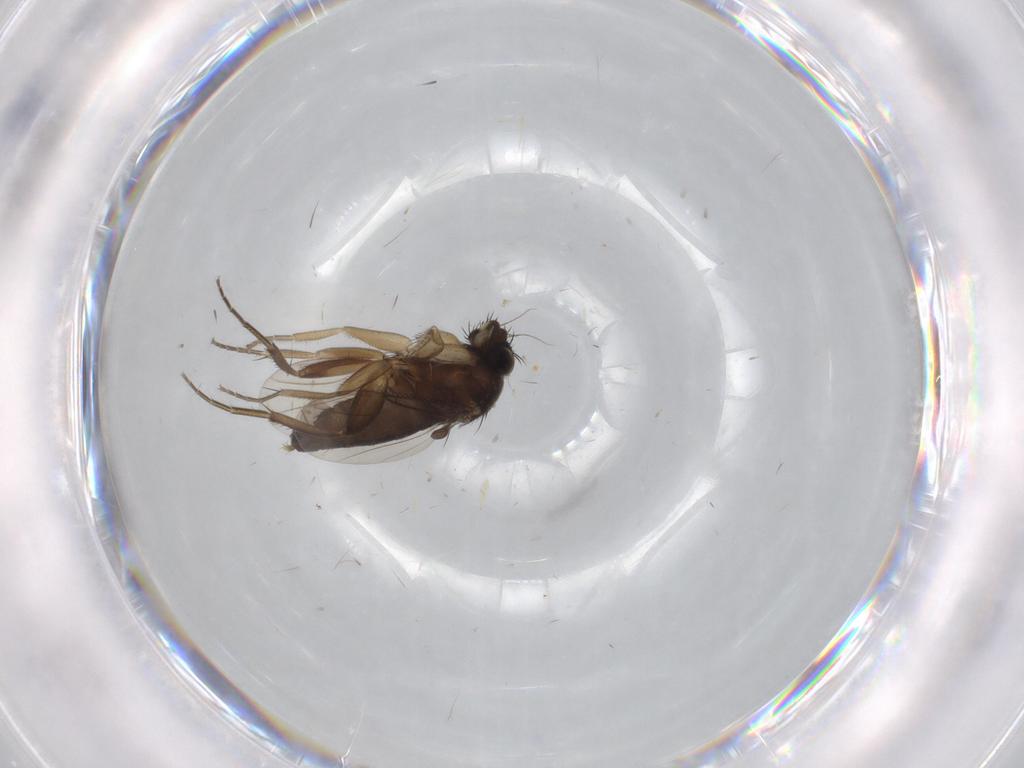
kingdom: Animalia
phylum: Arthropoda
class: Insecta
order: Diptera
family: Phoridae
